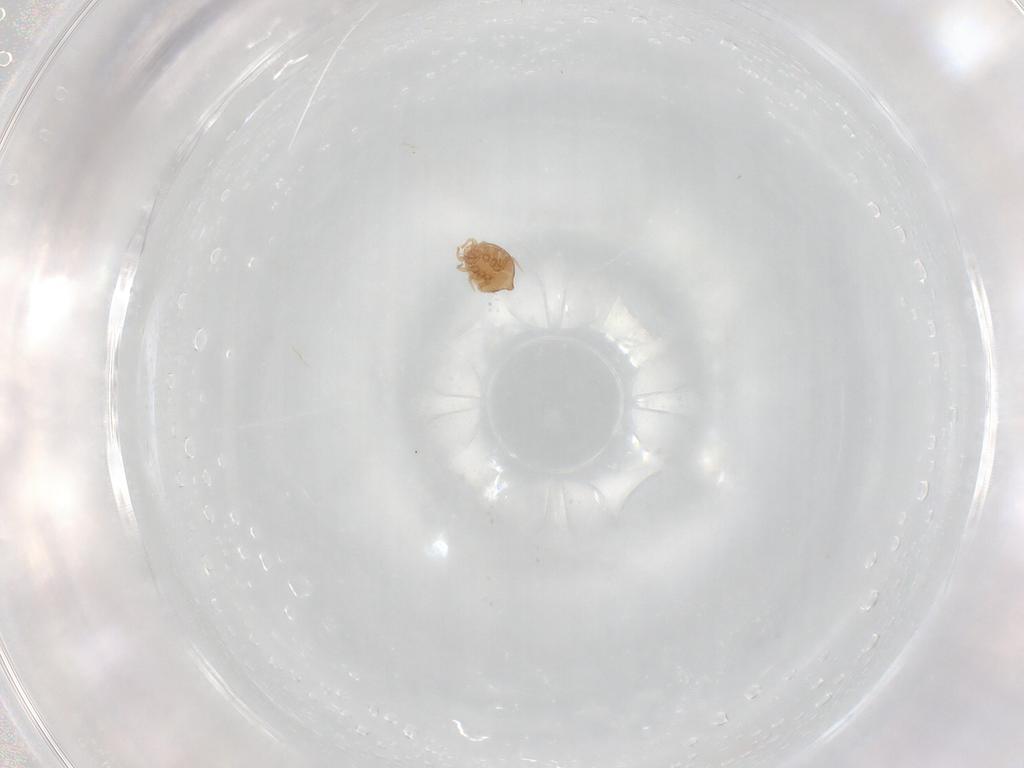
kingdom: Animalia
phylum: Arthropoda
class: Arachnida
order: Mesostigmata
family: Polyaspididae
